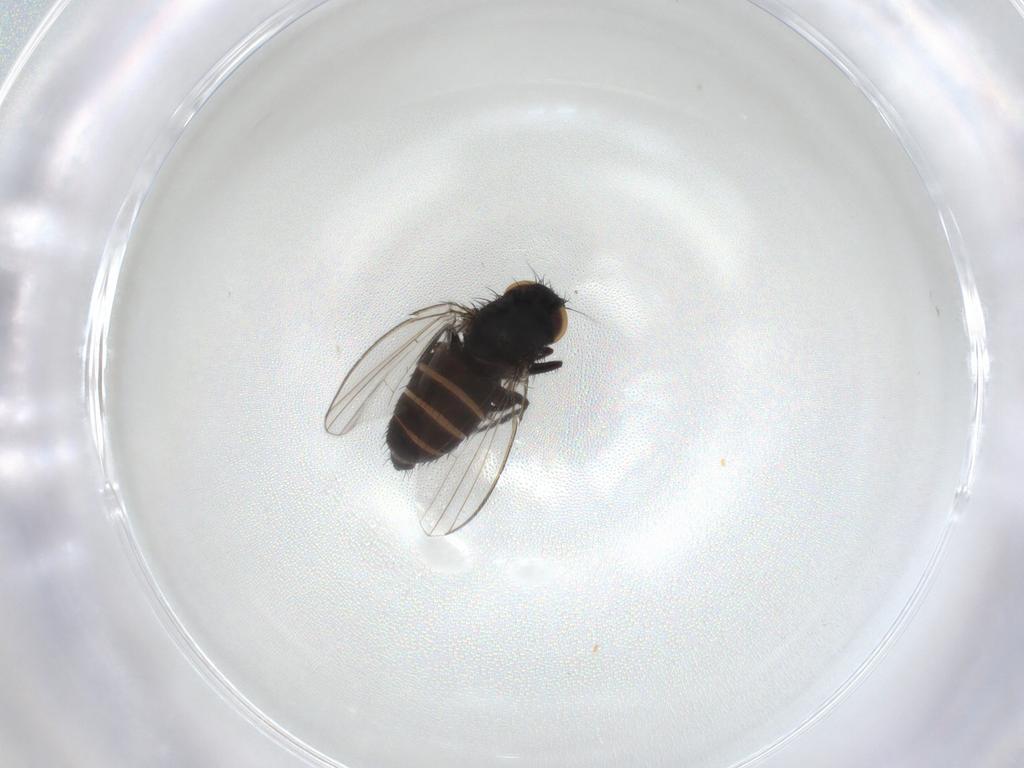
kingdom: Animalia
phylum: Arthropoda
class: Insecta
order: Diptera
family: Milichiidae
